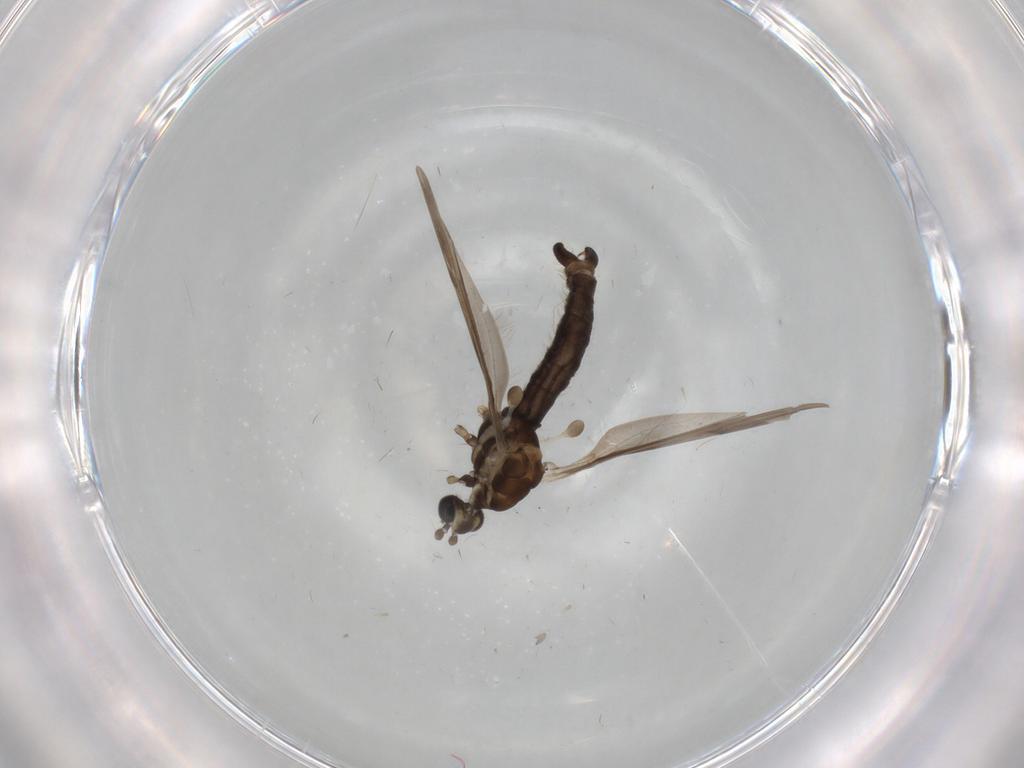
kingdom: Animalia
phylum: Arthropoda
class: Insecta
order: Diptera
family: Limoniidae
